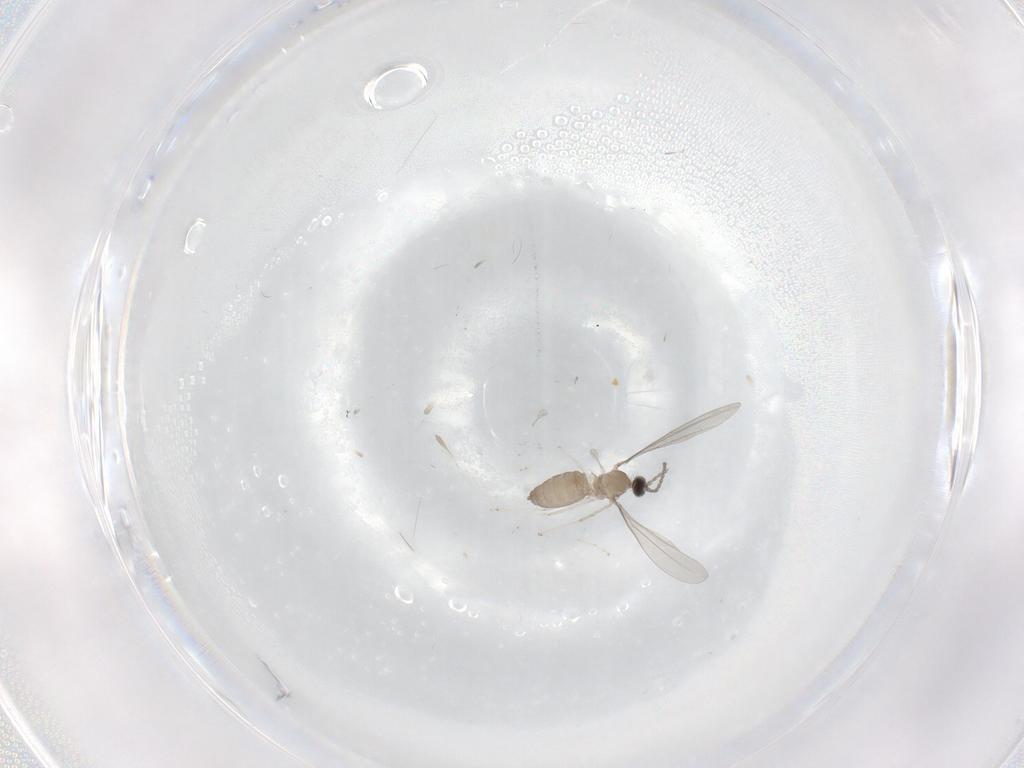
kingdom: Animalia
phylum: Arthropoda
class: Insecta
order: Diptera
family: Cecidomyiidae
